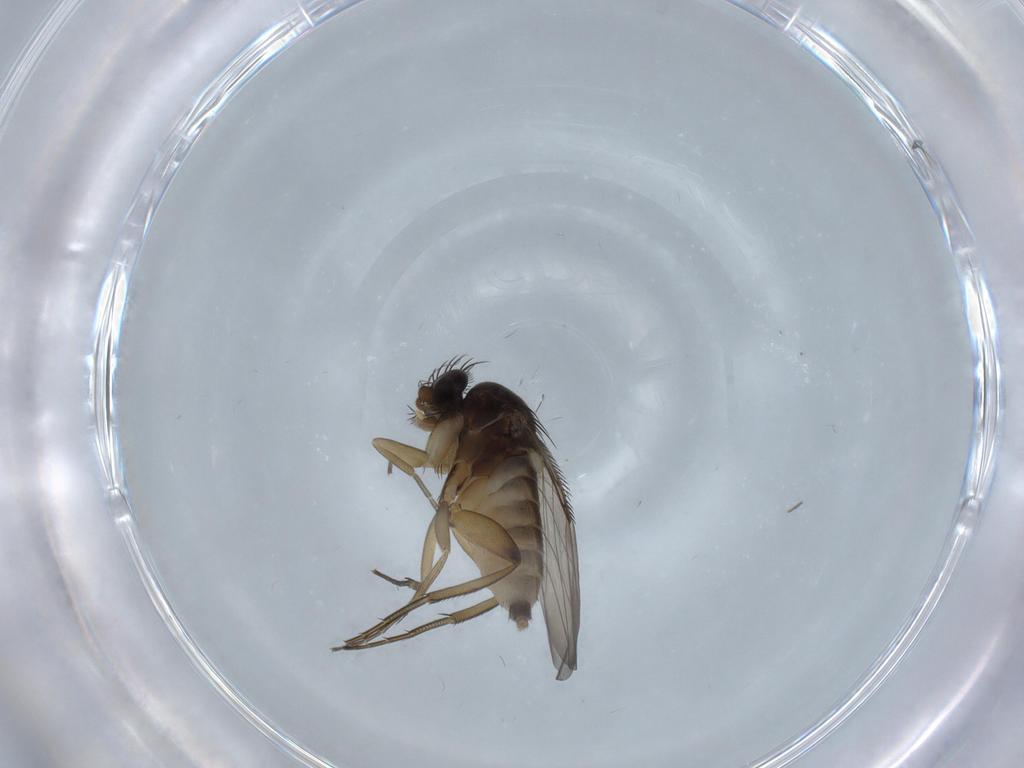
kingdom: Animalia
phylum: Arthropoda
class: Insecta
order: Diptera
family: Phoridae
